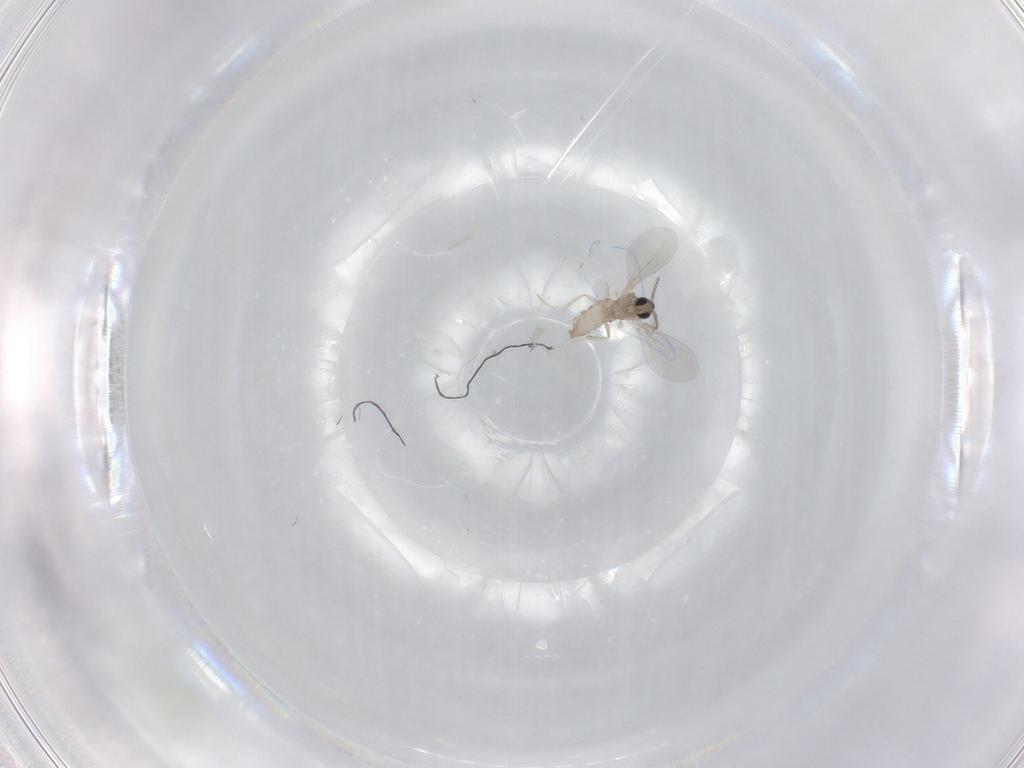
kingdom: Animalia
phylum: Arthropoda
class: Insecta
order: Diptera
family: Cecidomyiidae
